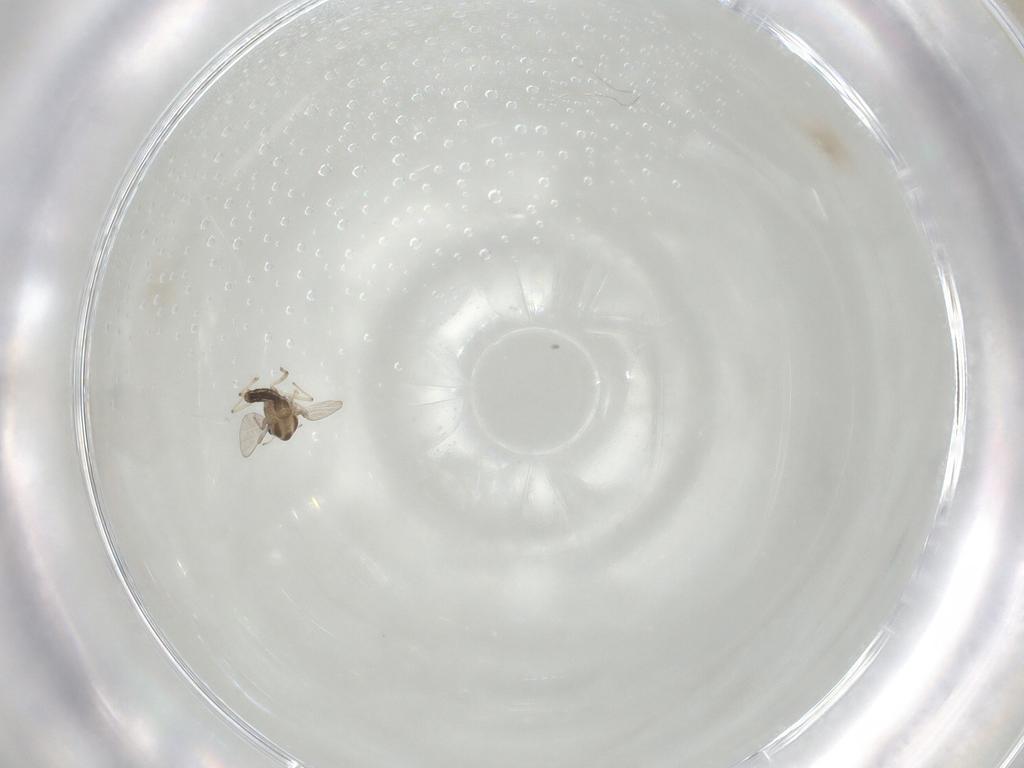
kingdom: Animalia
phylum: Arthropoda
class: Insecta
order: Diptera
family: Chironomidae
